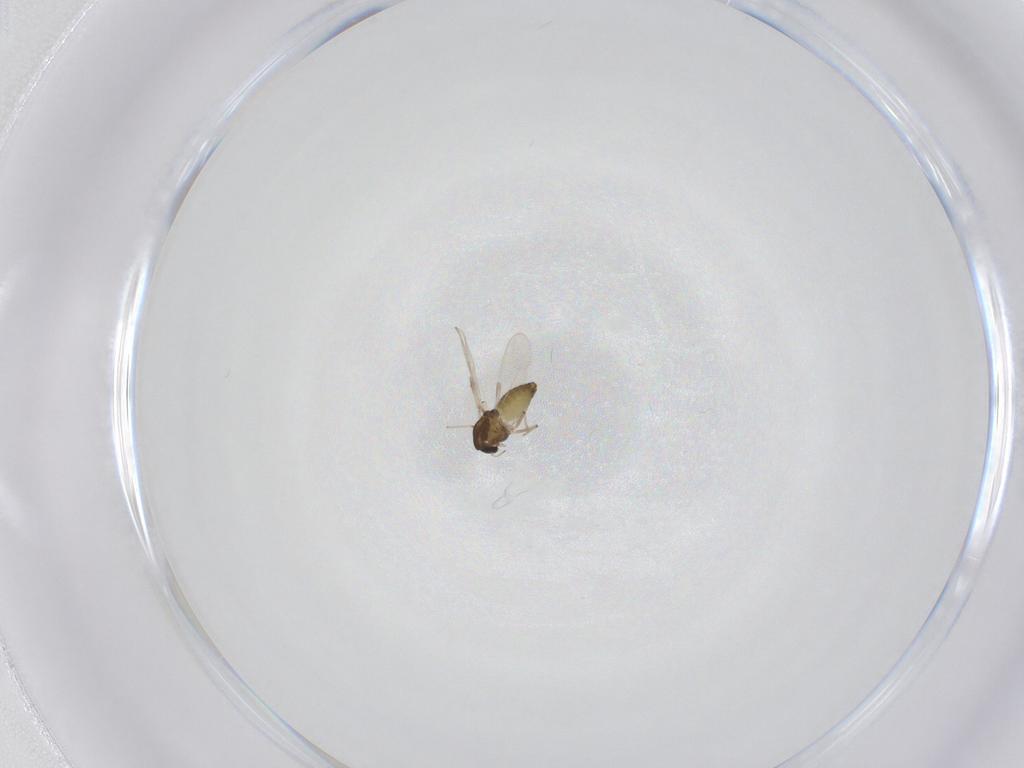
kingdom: Animalia
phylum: Arthropoda
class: Insecta
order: Diptera
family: Chironomidae
